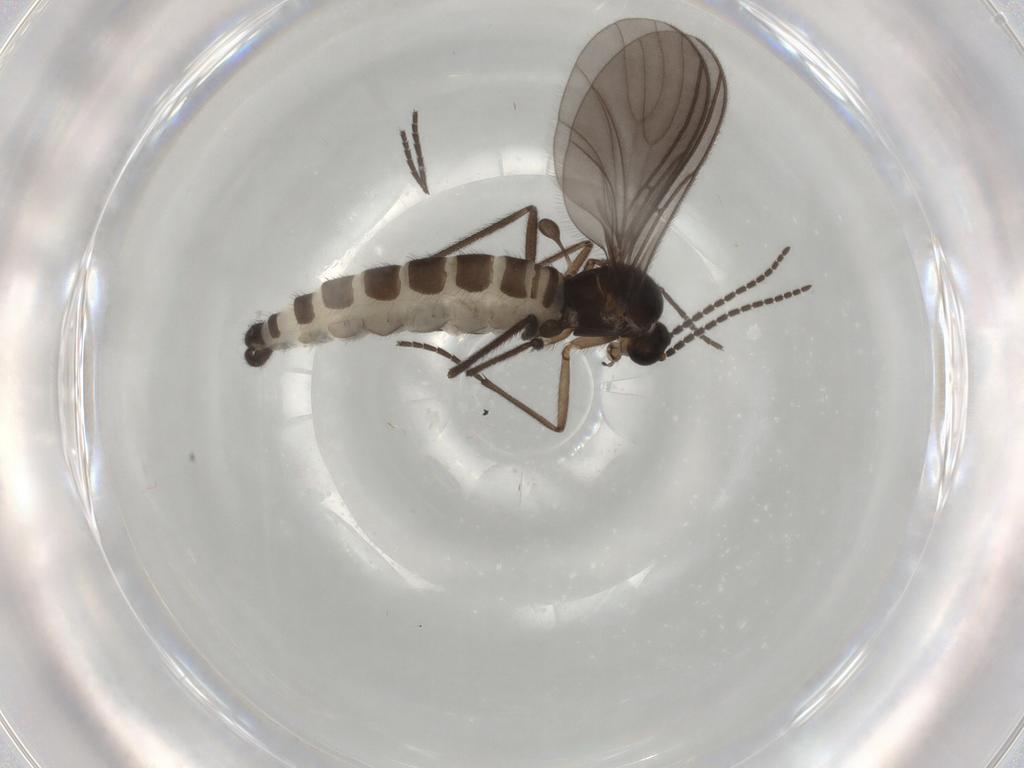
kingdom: Animalia
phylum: Arthropoda
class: Insecta
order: Diptera
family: Sciaridae
